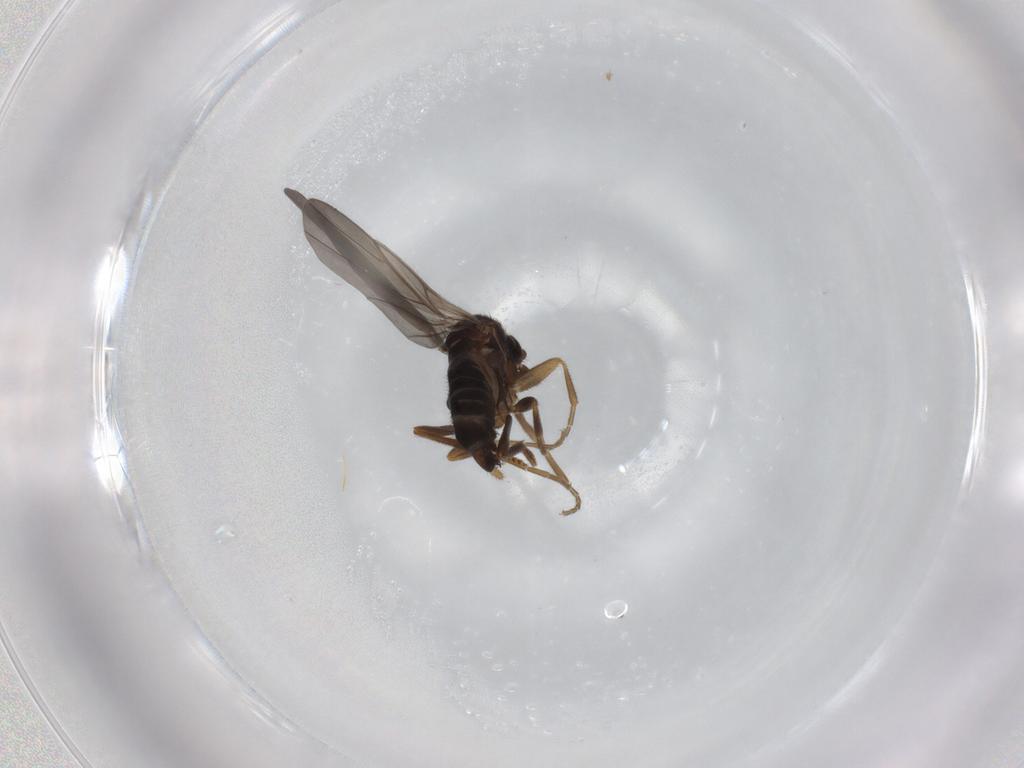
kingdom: Animalia
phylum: Arthropoda
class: Insecta
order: Diptera
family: Phoridae
